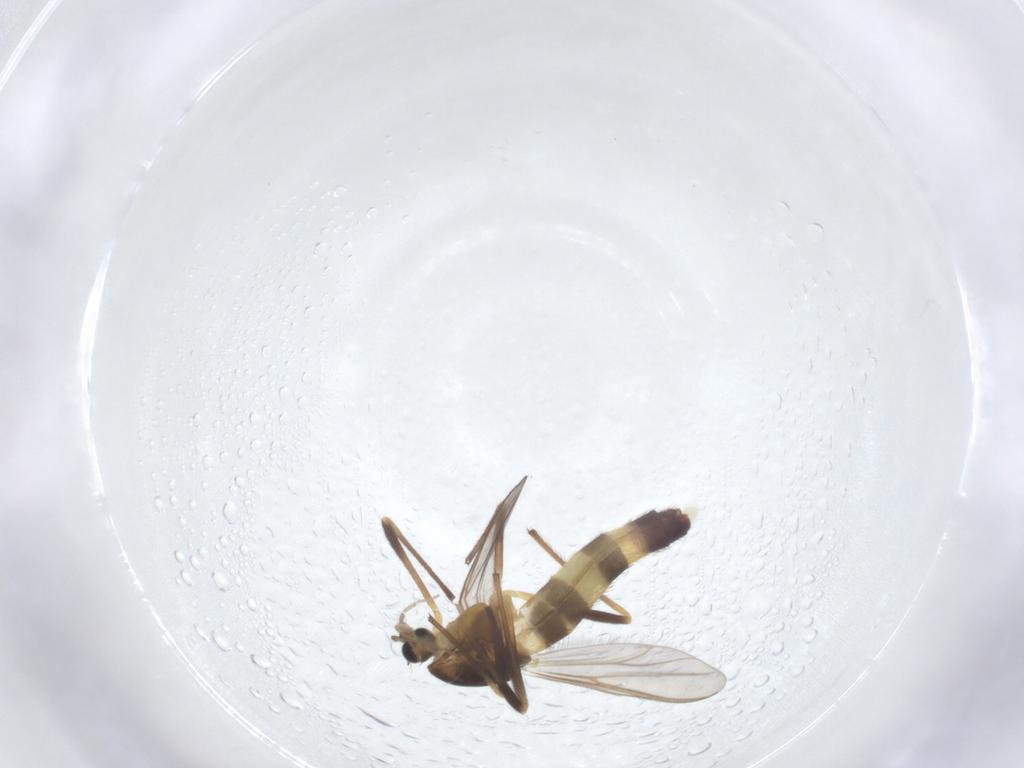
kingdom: Animalia
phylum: Arthropoda
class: Insecta
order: Diptera
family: Chironomidae
